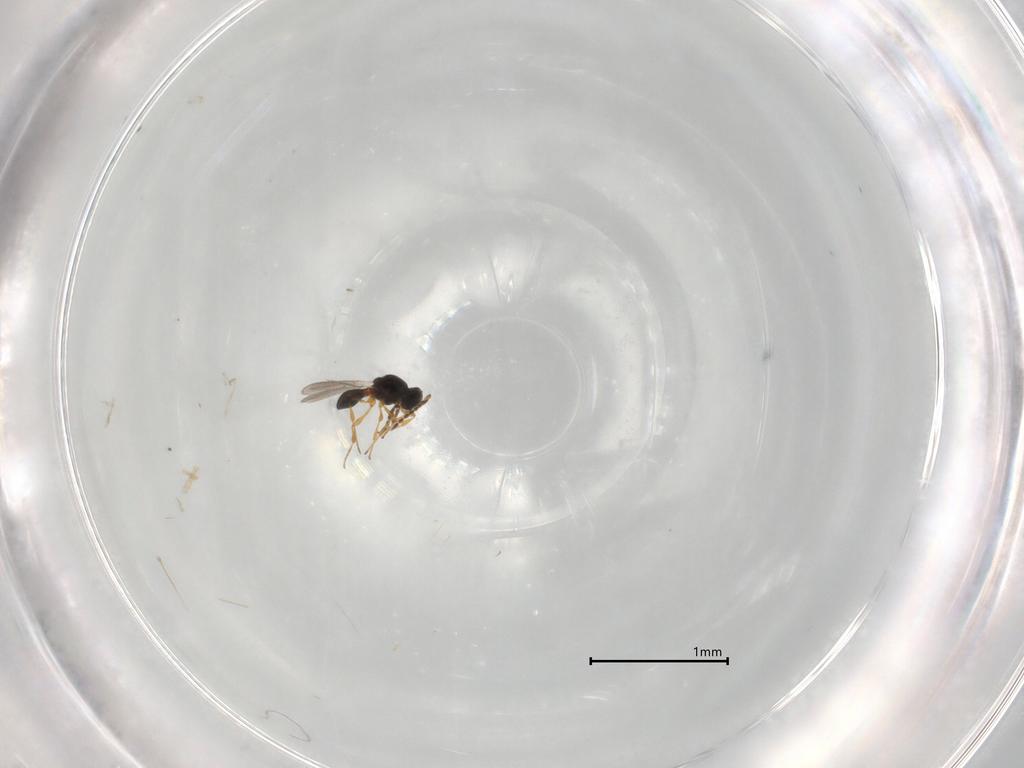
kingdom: Animalia
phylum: Arthropoda
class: Insecta
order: Hymenoptera
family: Platygastridae
